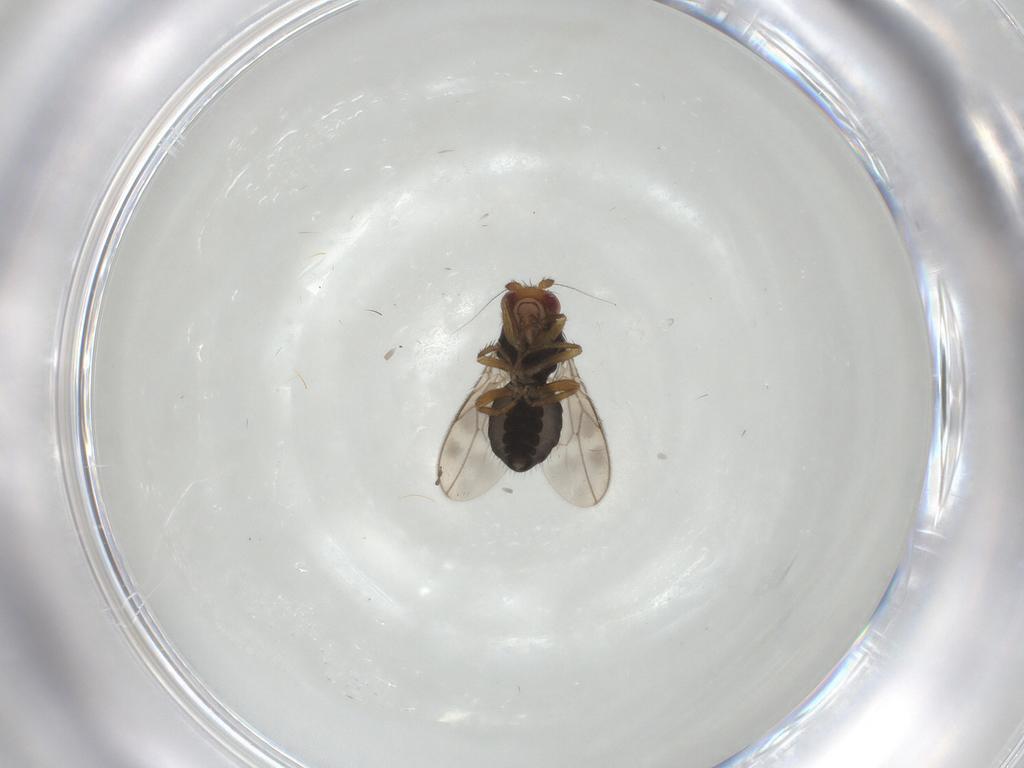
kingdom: Animalia
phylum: Arthropoda
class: Insecta
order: Diptera
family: Sphaeroceridae
